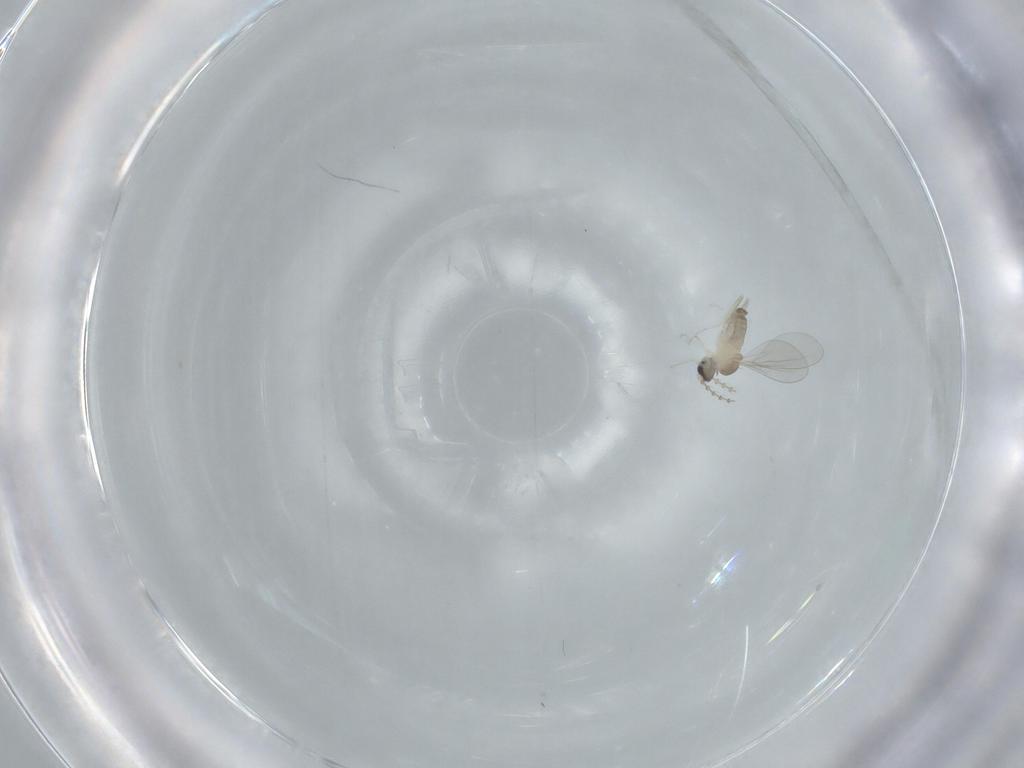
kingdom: Animalia
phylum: Arthropoda
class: Insecta
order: Diptera
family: Cecidomyiidae
